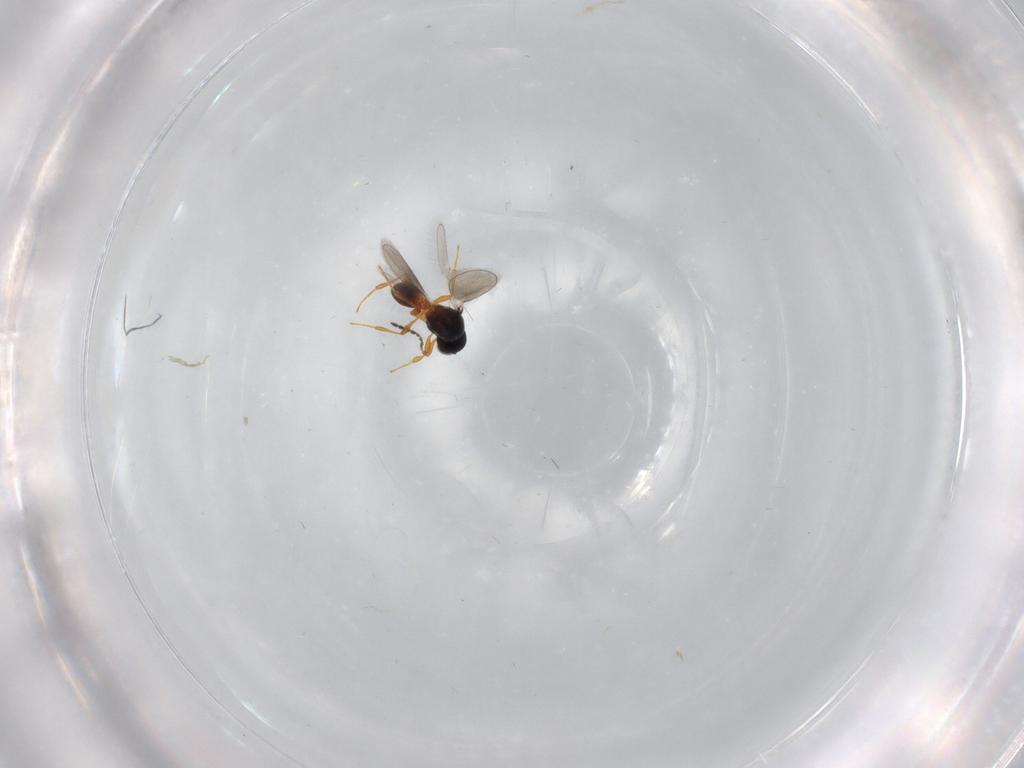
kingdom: Animalia
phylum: Arthropoda
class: Insecta
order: Hymenoptera
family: Platygastridae
